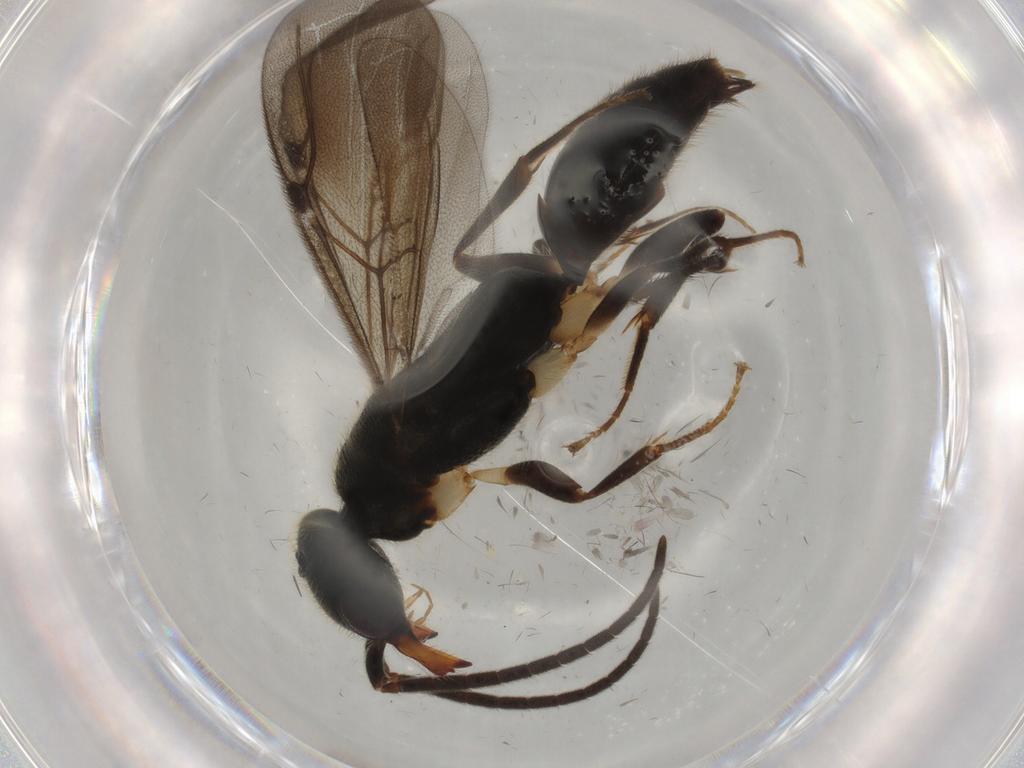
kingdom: Animalia
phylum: Arthropoda
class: Insecta
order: Hymenoptera
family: Bethylidae
